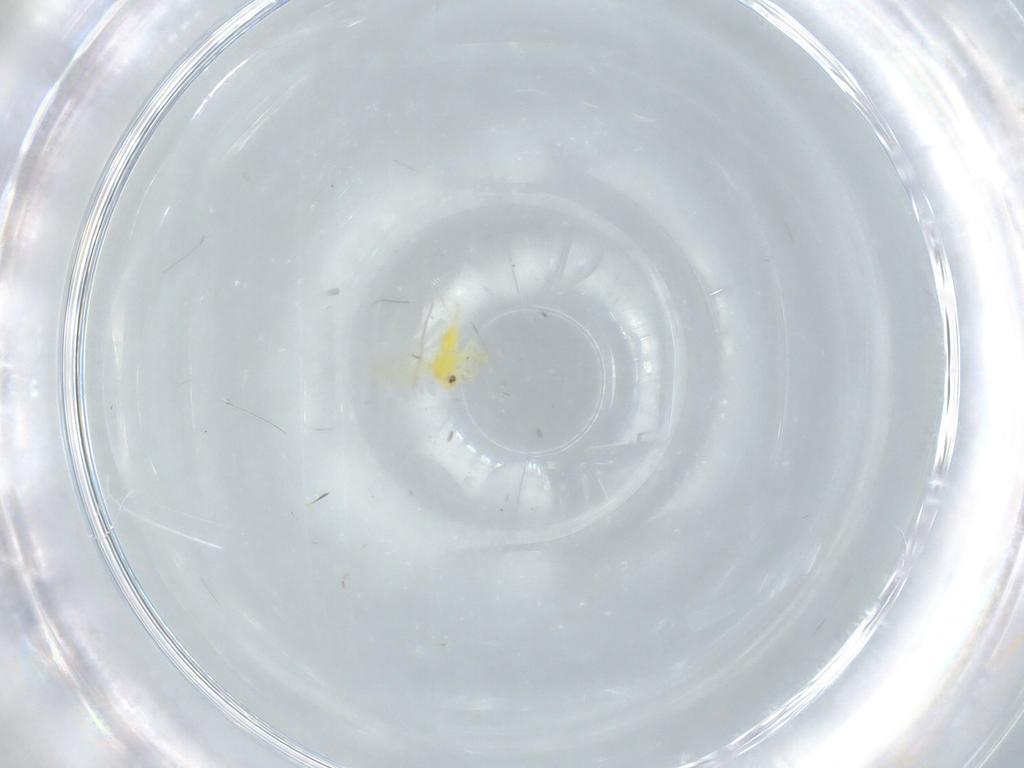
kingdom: Animalia
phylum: Arthropoda
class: Insecta
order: Hemiptera
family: Aleyrodidae
